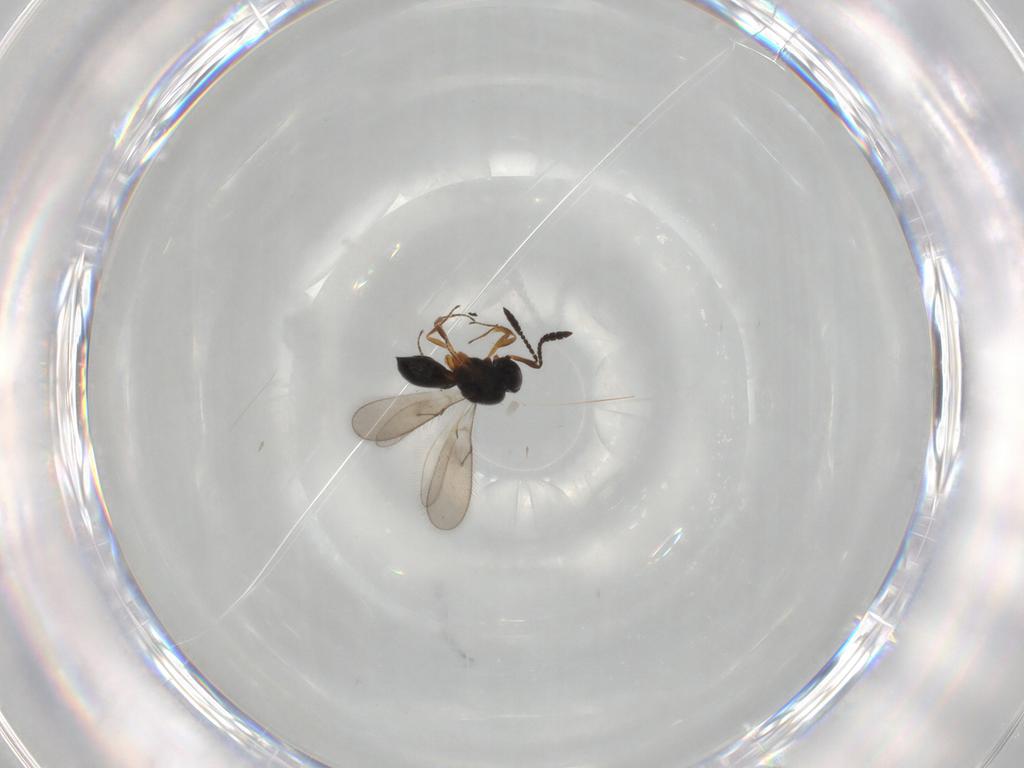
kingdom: Animalia
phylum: Arthropoda
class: Insecta
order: Hymenoptera
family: Scelionidae
